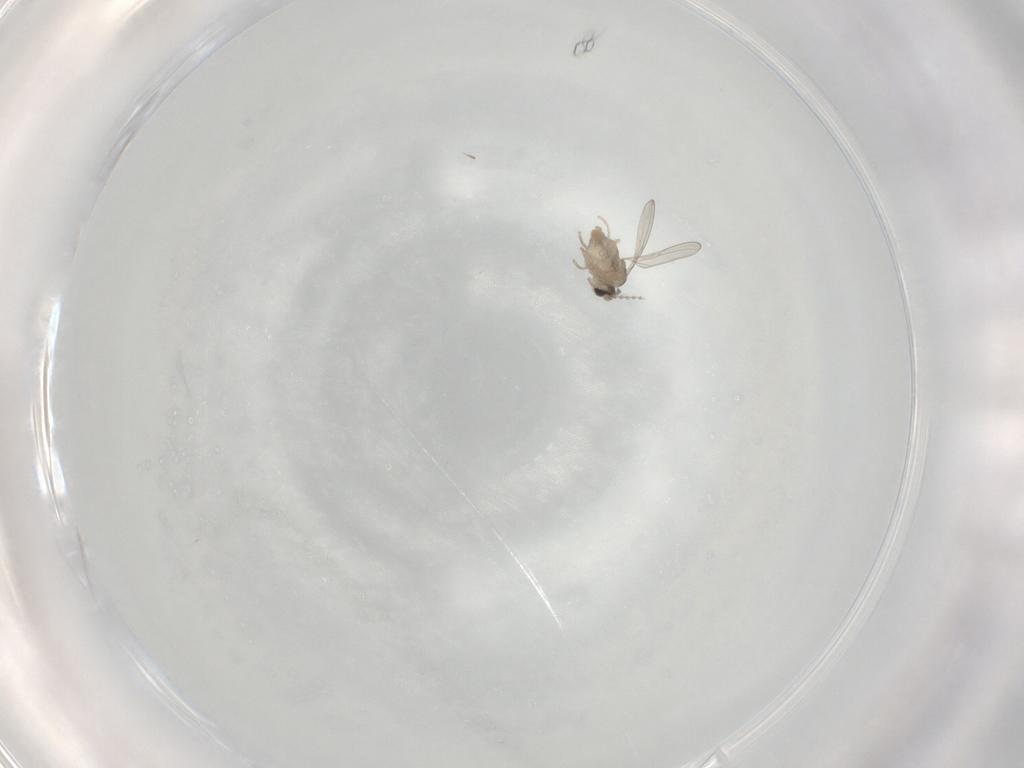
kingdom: Animalia
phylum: Arthropoda
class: Insecta
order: Diptera
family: Cecidomyiidae
